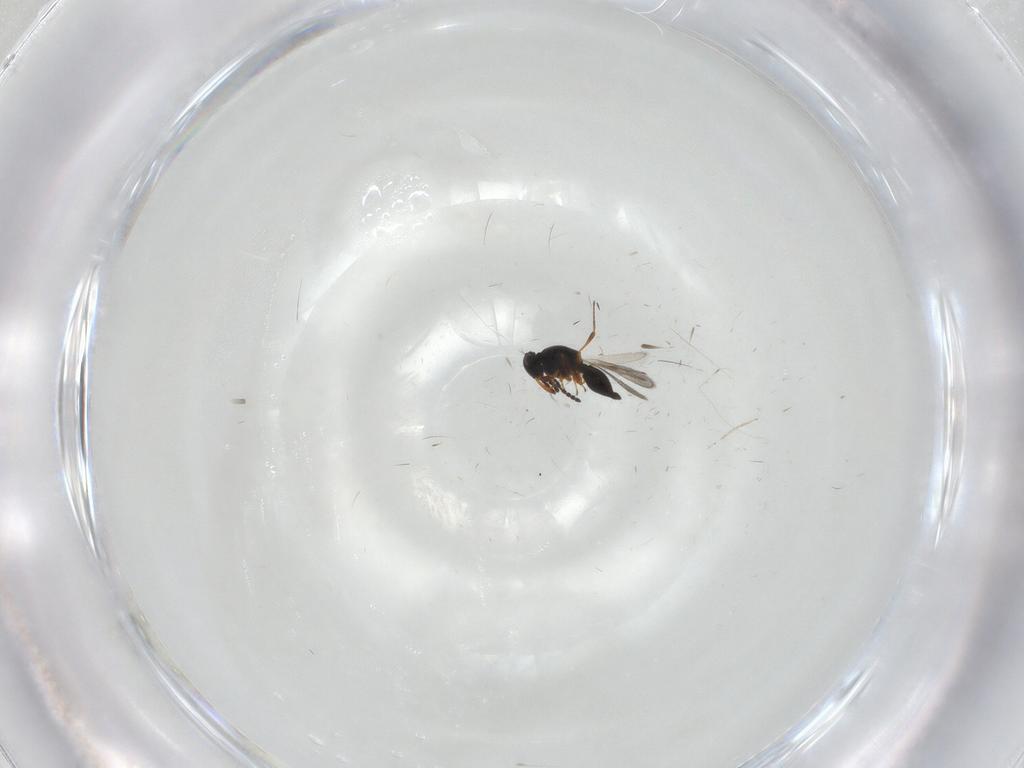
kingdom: Animalia
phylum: Arthropoda
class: Insecta
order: Hymenoptera
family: Platygastridae
